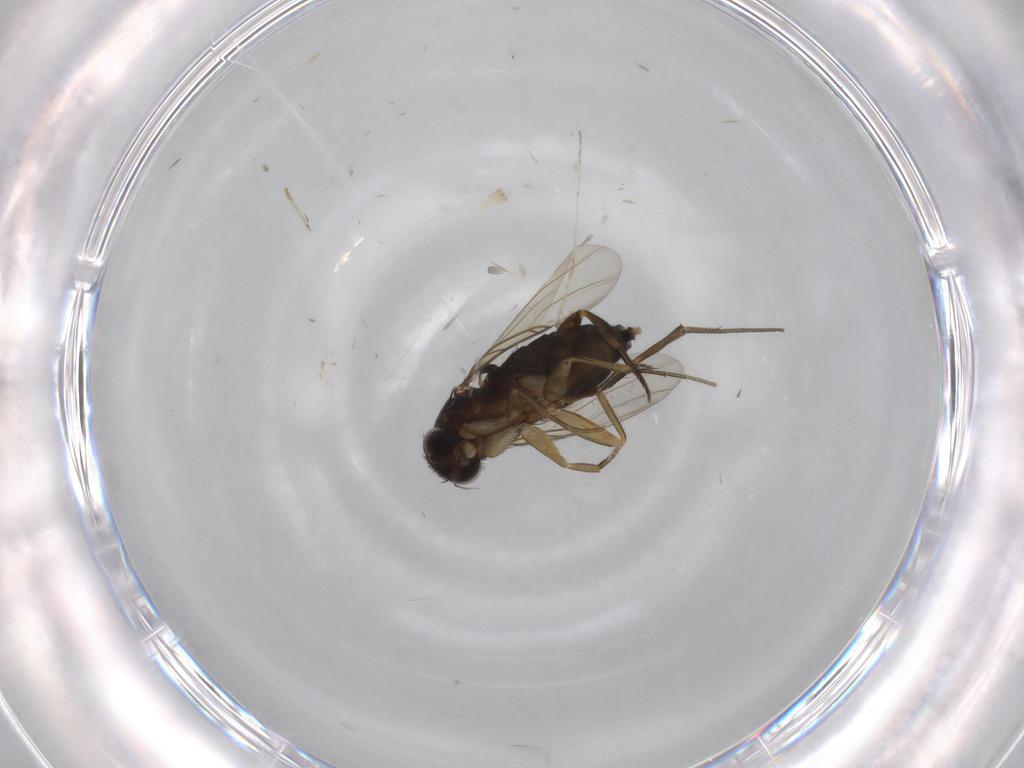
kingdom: Animalia
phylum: Arthropoda
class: Insecta
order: Diptera
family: Phoridae
